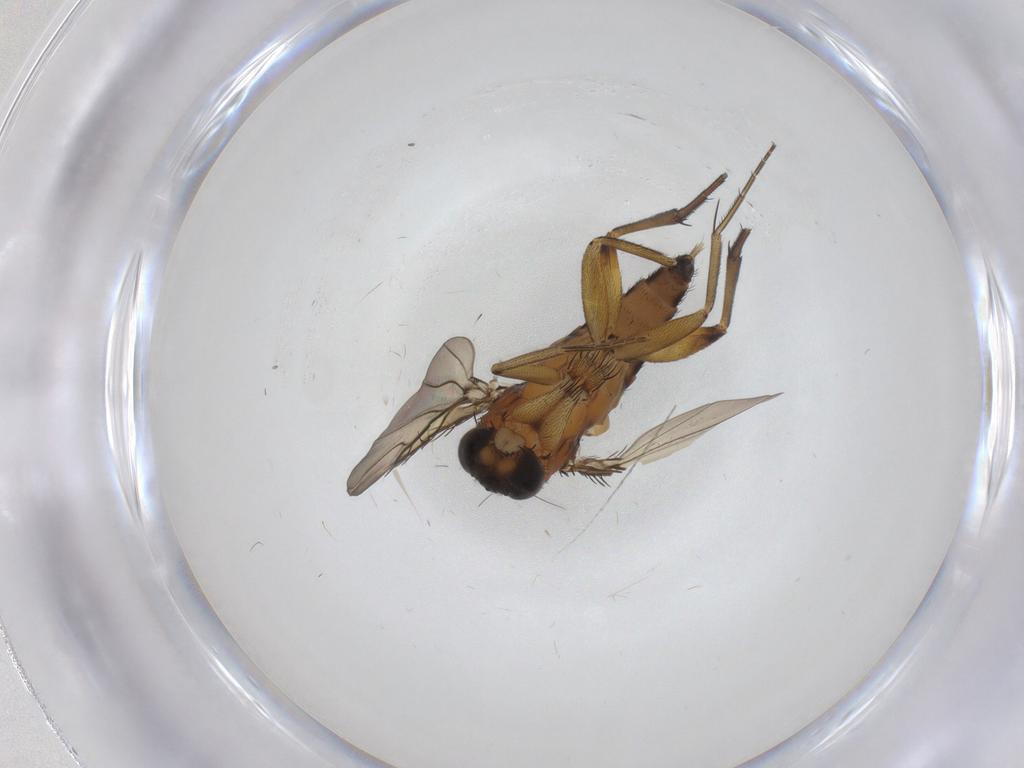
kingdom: Animalia
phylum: Arthropoda
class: Insecta
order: Diptera
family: Phoridae
